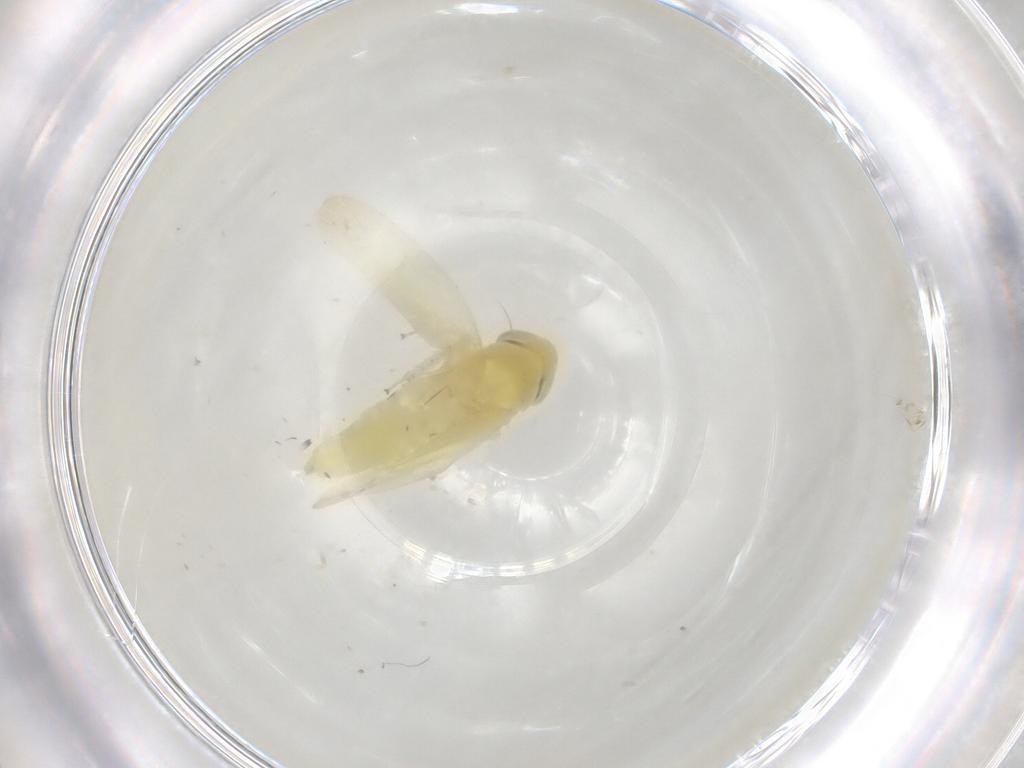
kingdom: Animalia
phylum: Arthropoda
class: Insecta
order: Hemiptera
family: Cicadellidae
